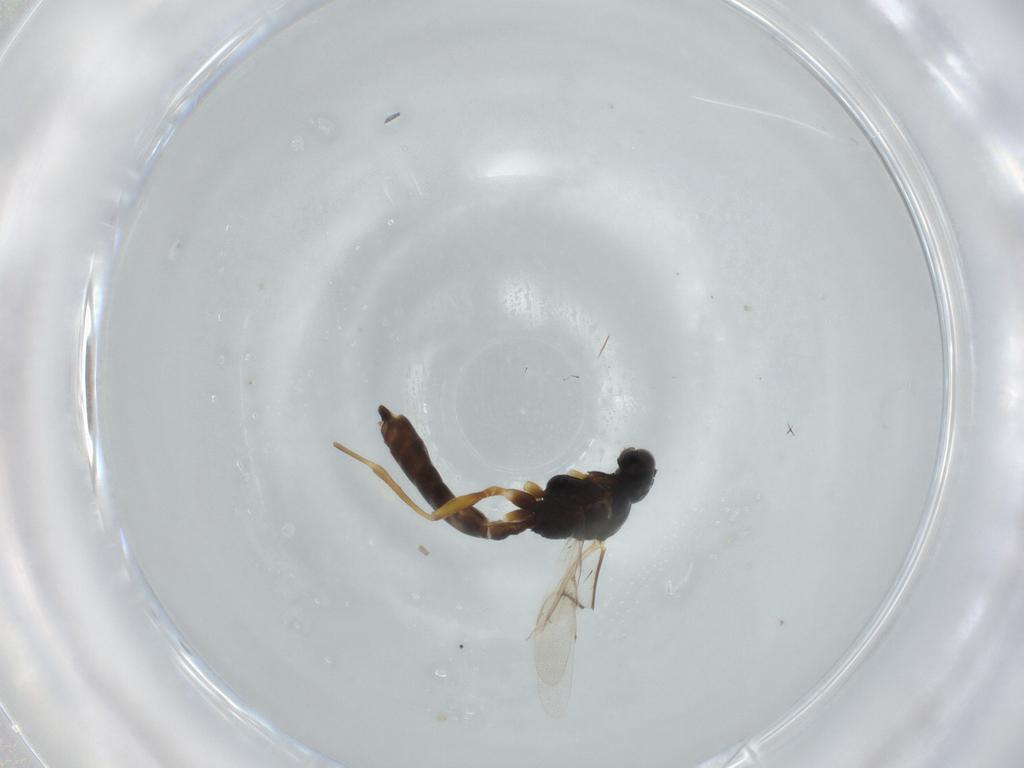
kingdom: Animalia
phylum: Arthropoda
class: Insecta
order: Hymenoptera
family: Braconidae
